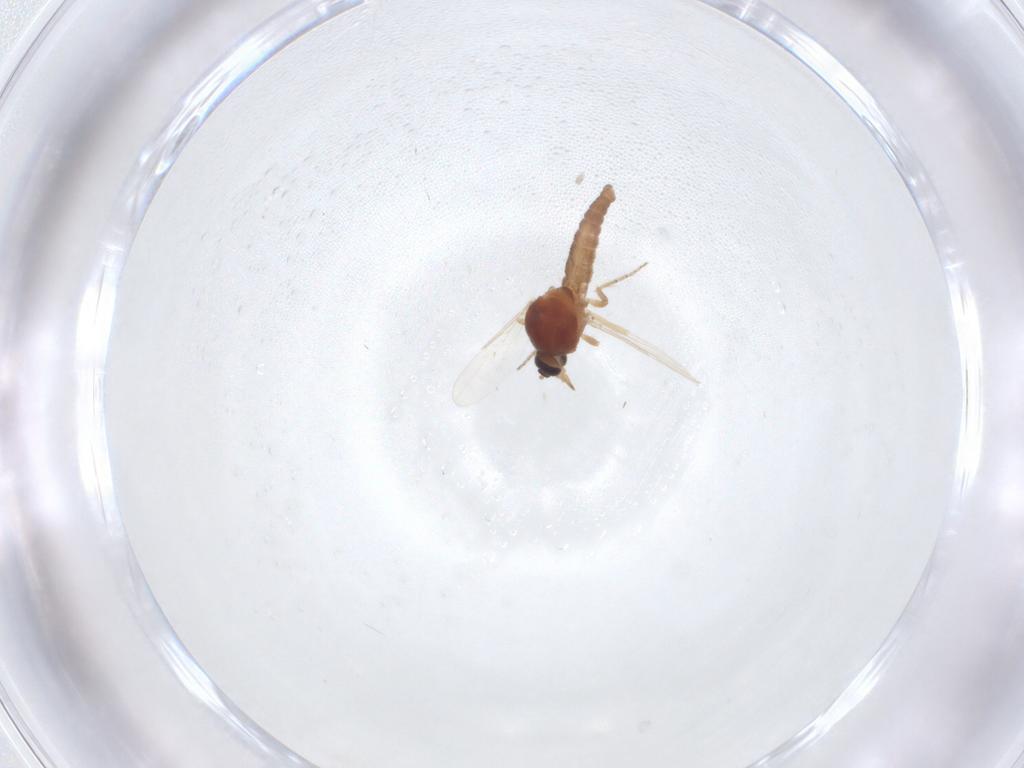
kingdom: Animalia
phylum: Arthropoda
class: Insecta
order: Diptera
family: Ceratopogonidae
